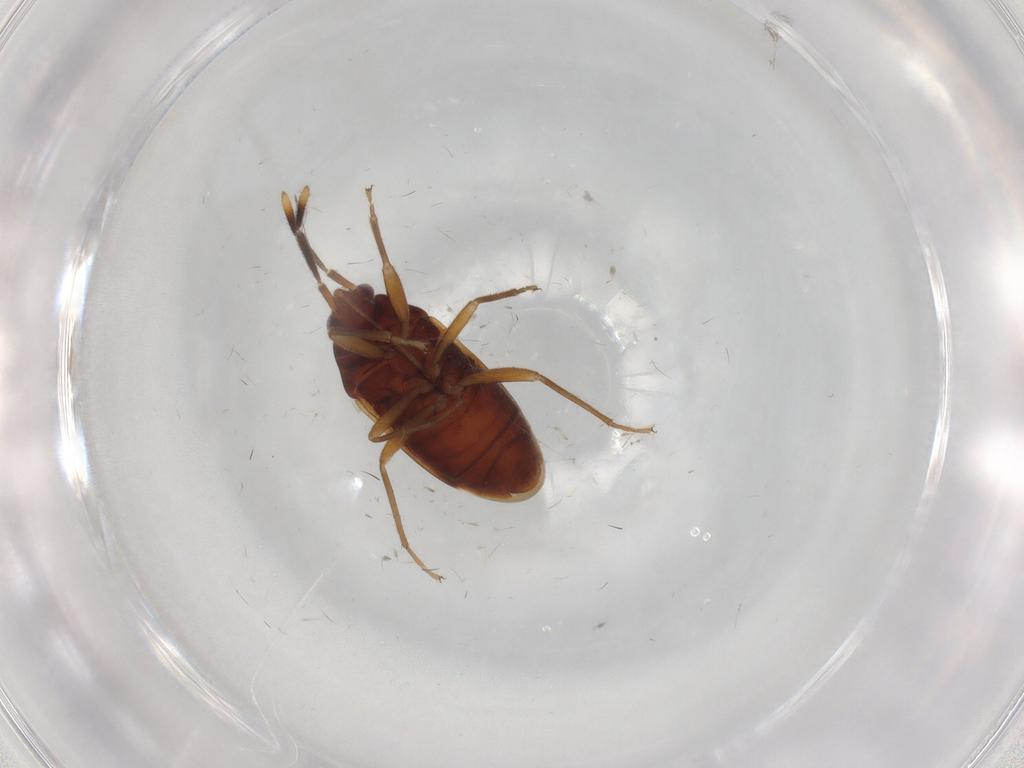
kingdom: Animalia
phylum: Arthropoda
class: Insecta
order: Hemiptera
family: Rhyparochromidae
